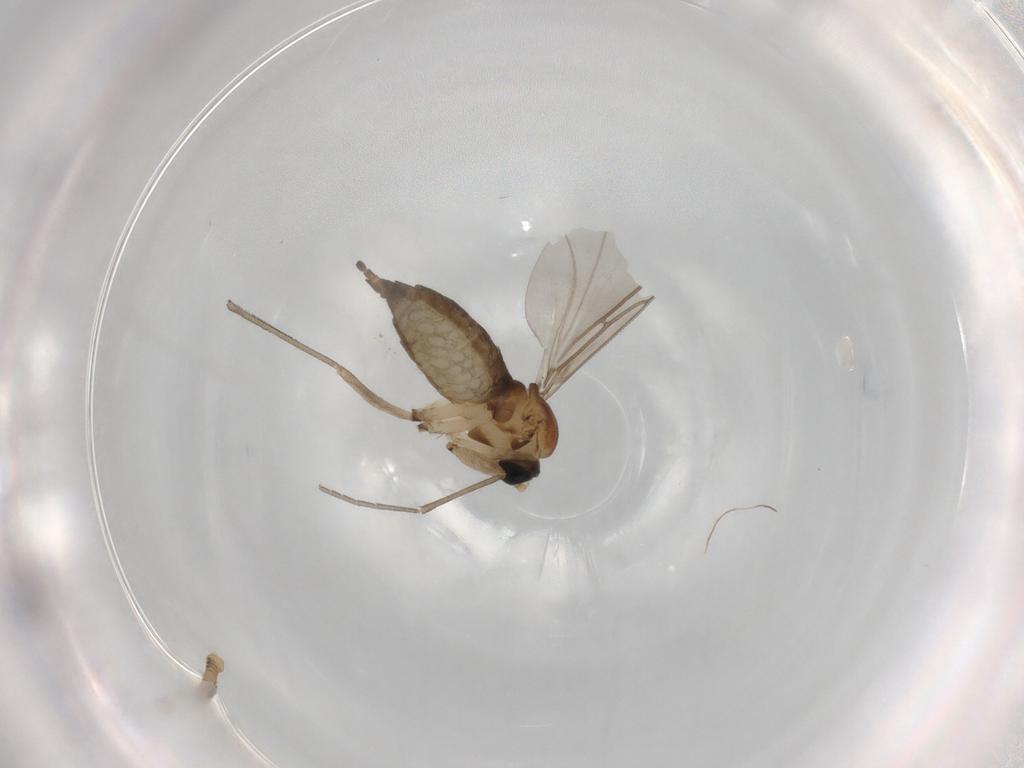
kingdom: Animalia
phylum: Arthropoda
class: Insecta
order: Diptera
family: Sciaridae
